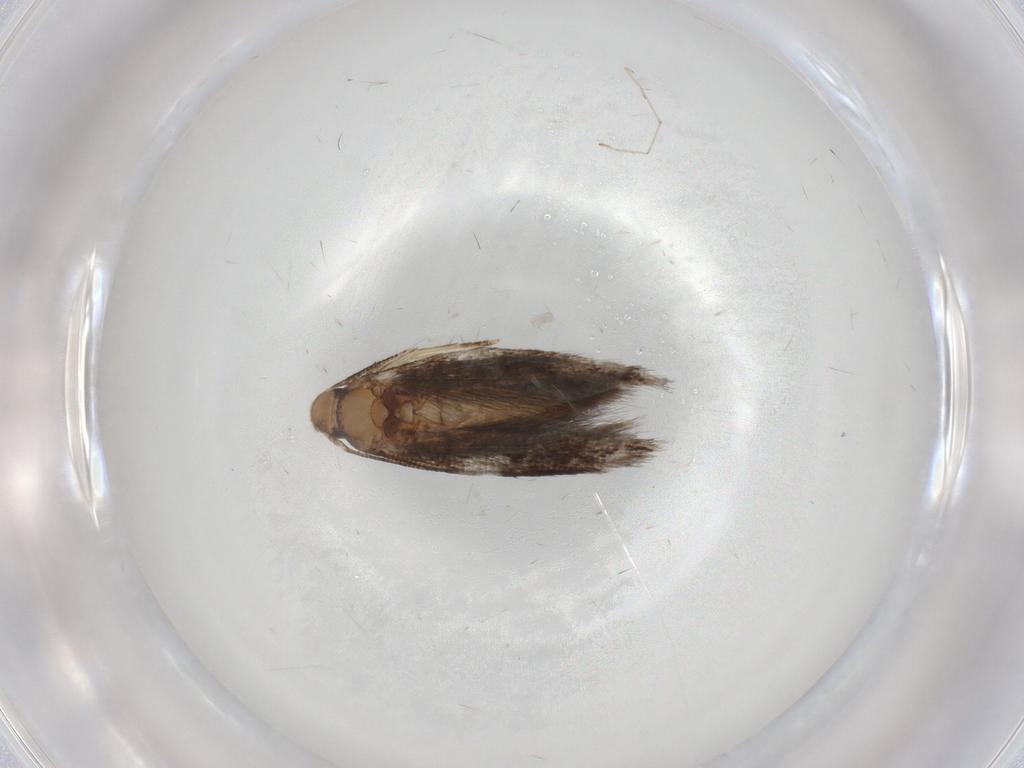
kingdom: Animalia
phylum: Arthropoda
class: Insecta
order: Lepidoptera
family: Gelechiidae
